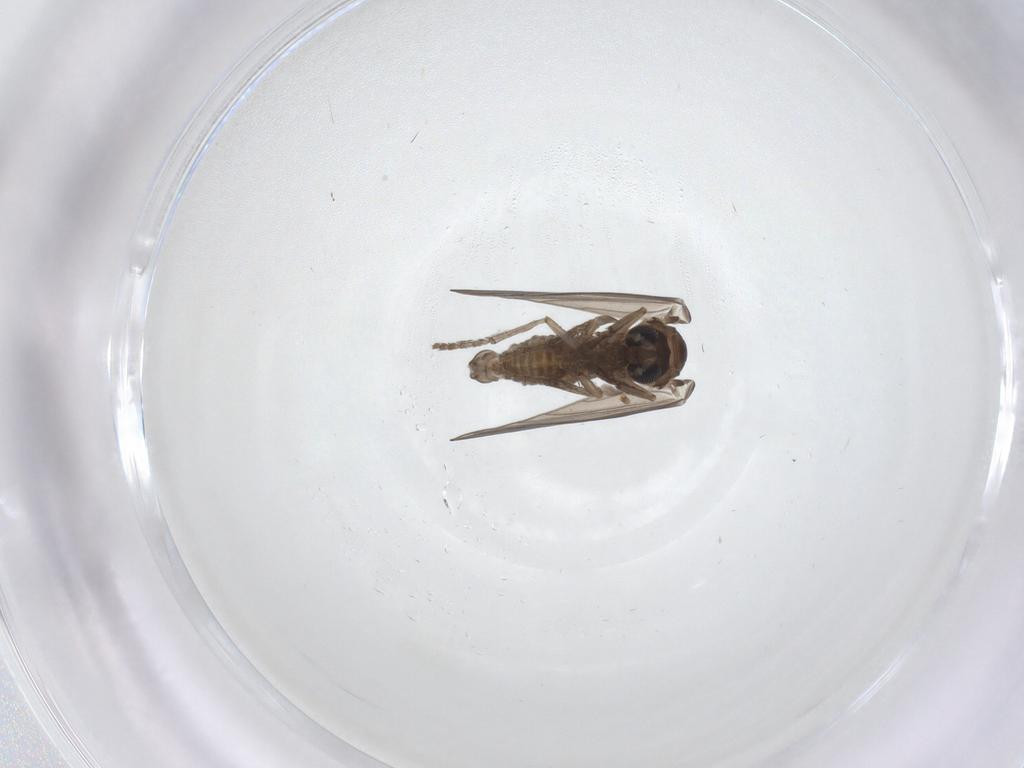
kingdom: Animalia
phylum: Arthropoda
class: Insecta
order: Diptera
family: Psychodidae
